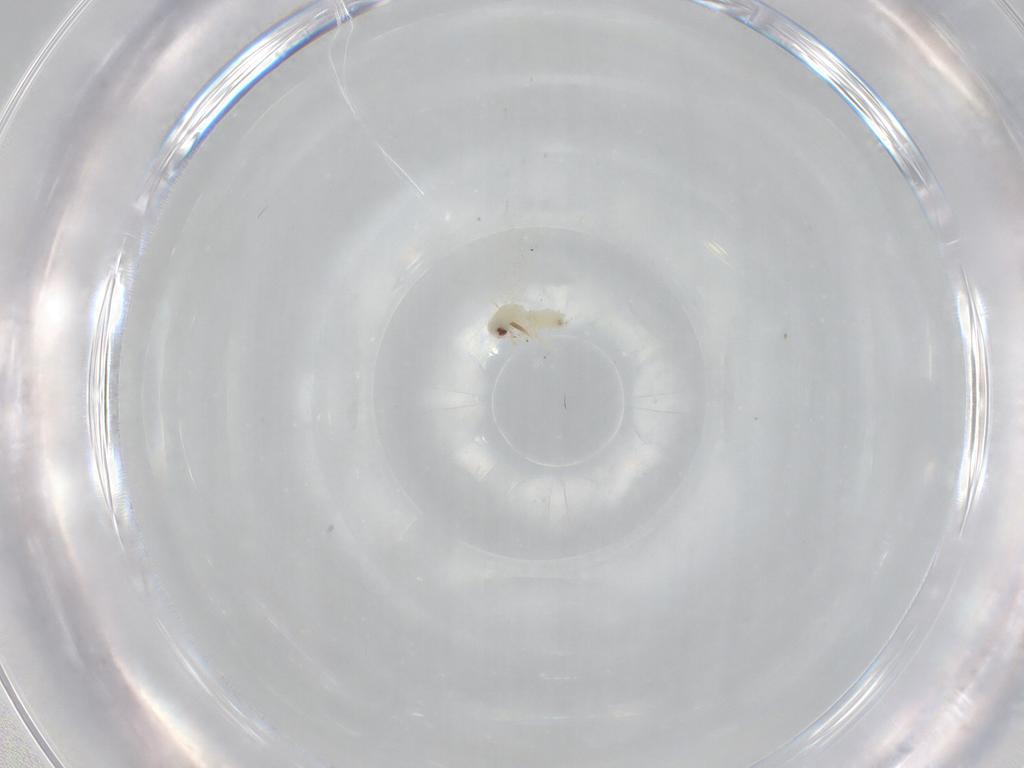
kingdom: Animalia
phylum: Arthropoda
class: Insecta
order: Hemiptera
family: Aleyrodidae
